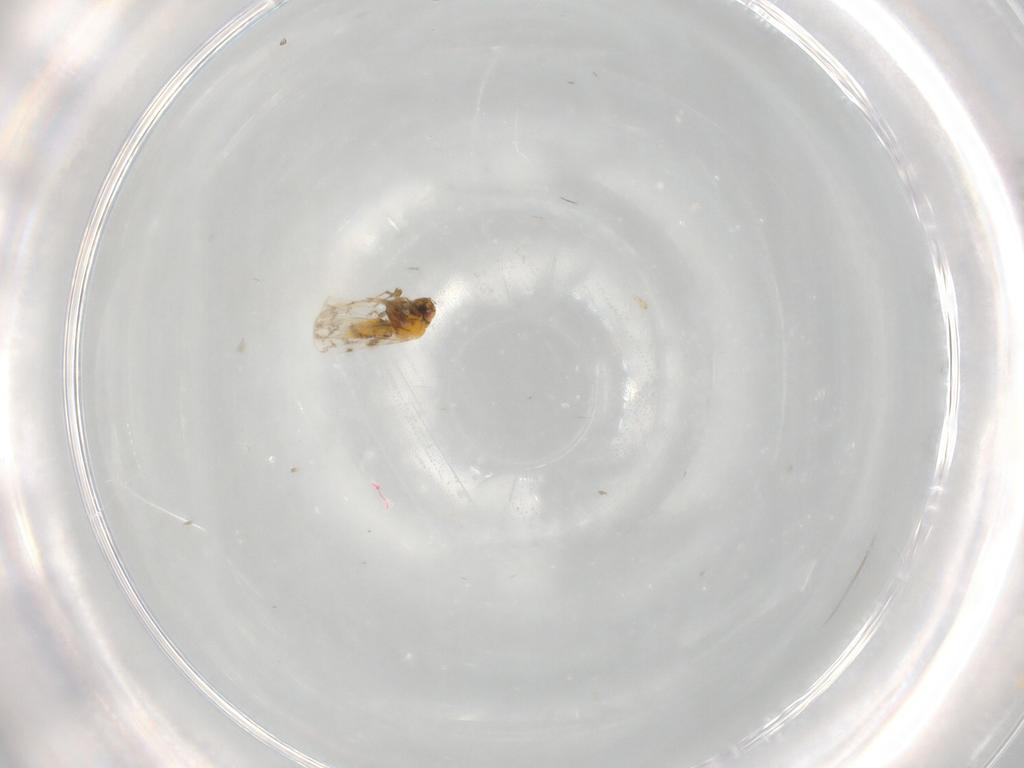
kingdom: Animalia
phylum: Arthropoda
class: Insecta
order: Hemiptera
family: Aleyrodidae
